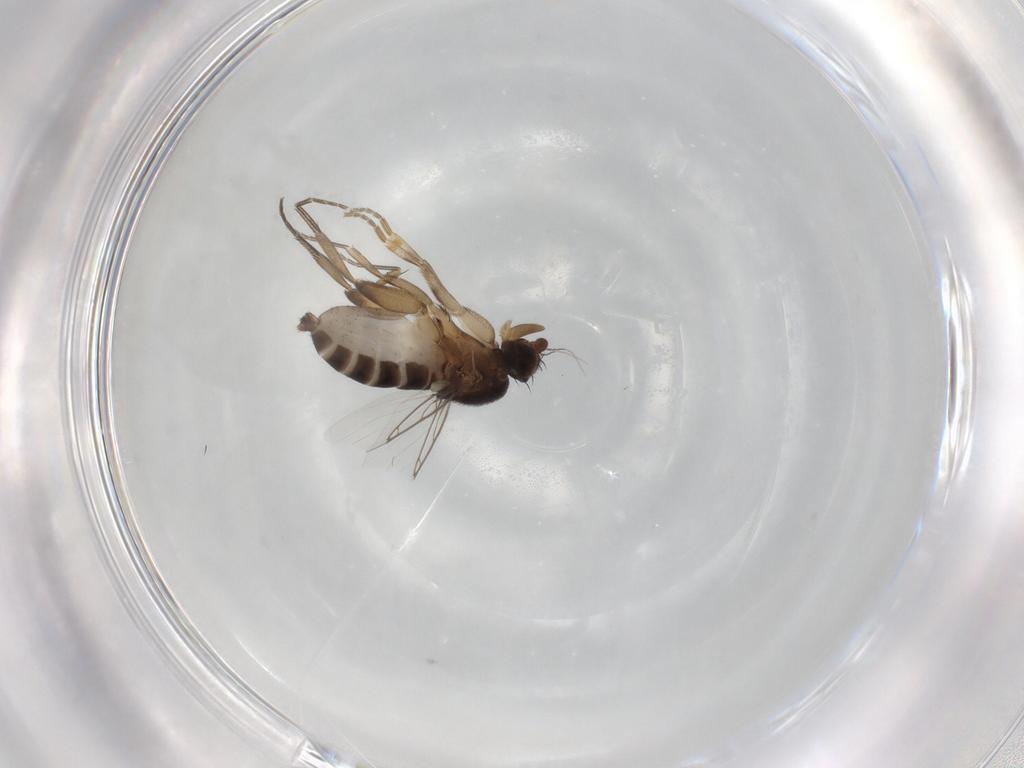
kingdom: Animalia
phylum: Arthropoda
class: Insecta
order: Diptera
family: Phoridae
